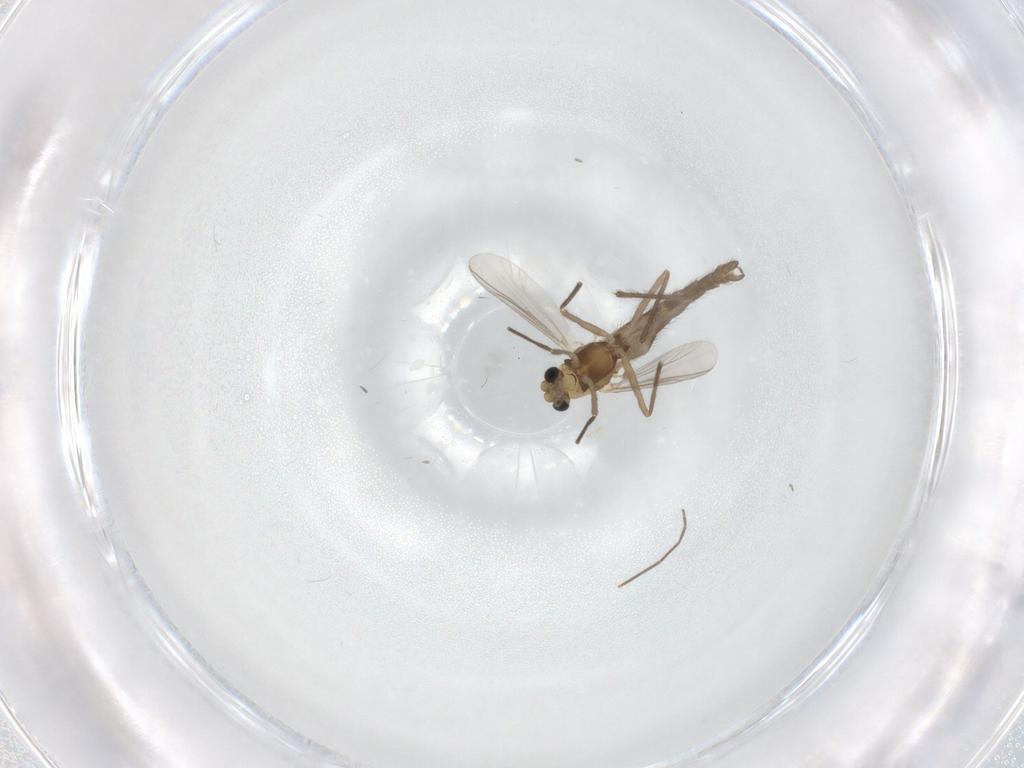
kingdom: Animalia
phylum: Arthropoda
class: Insecta
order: Diptera
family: Chironomidae
